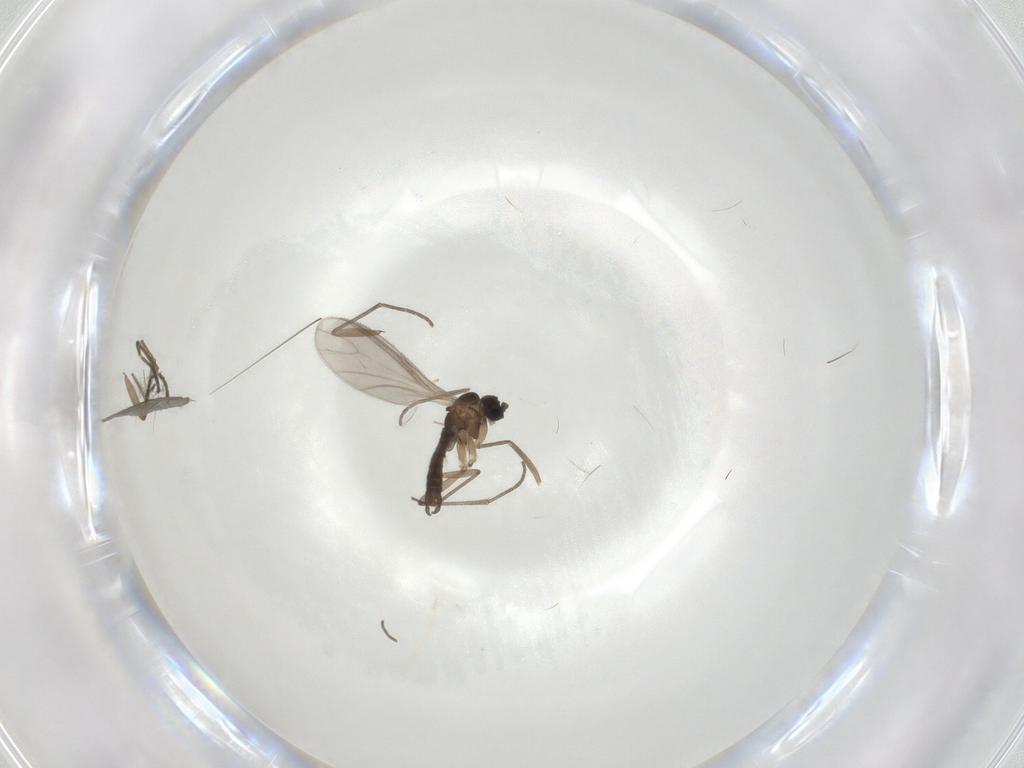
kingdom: Animalia
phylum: Arthropoda
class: Insecta
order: Diptera
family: Sciaridae
